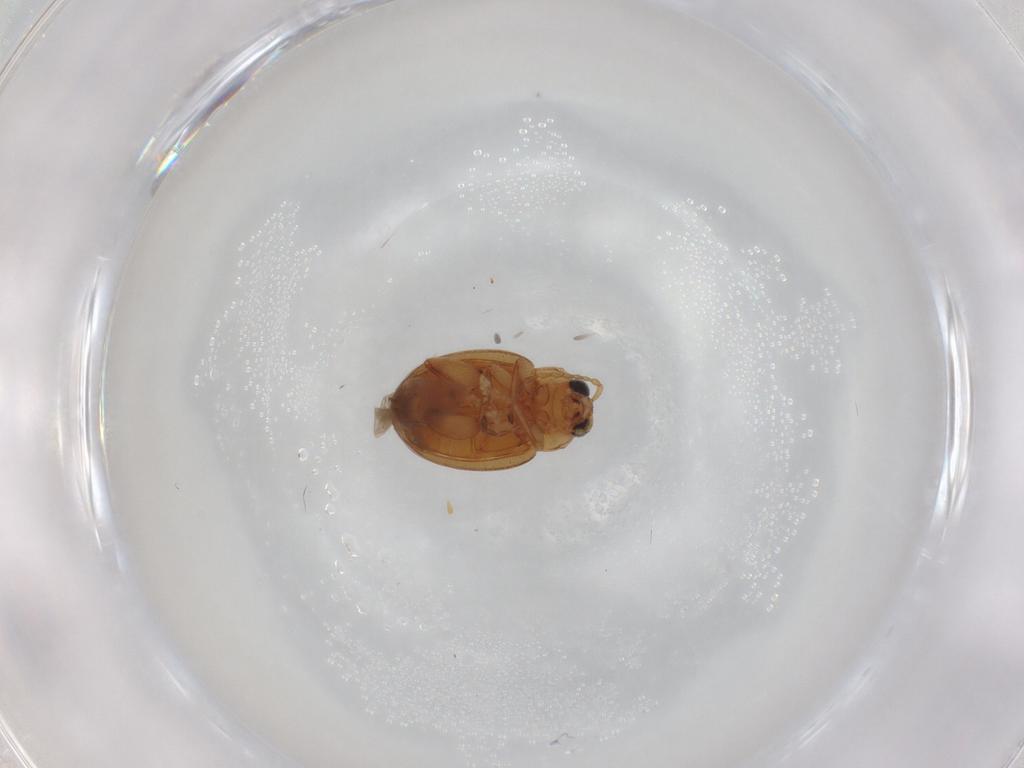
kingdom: Animalia
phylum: Arthropoda
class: Insecta
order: Coleoptera
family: Chrysomelidae
